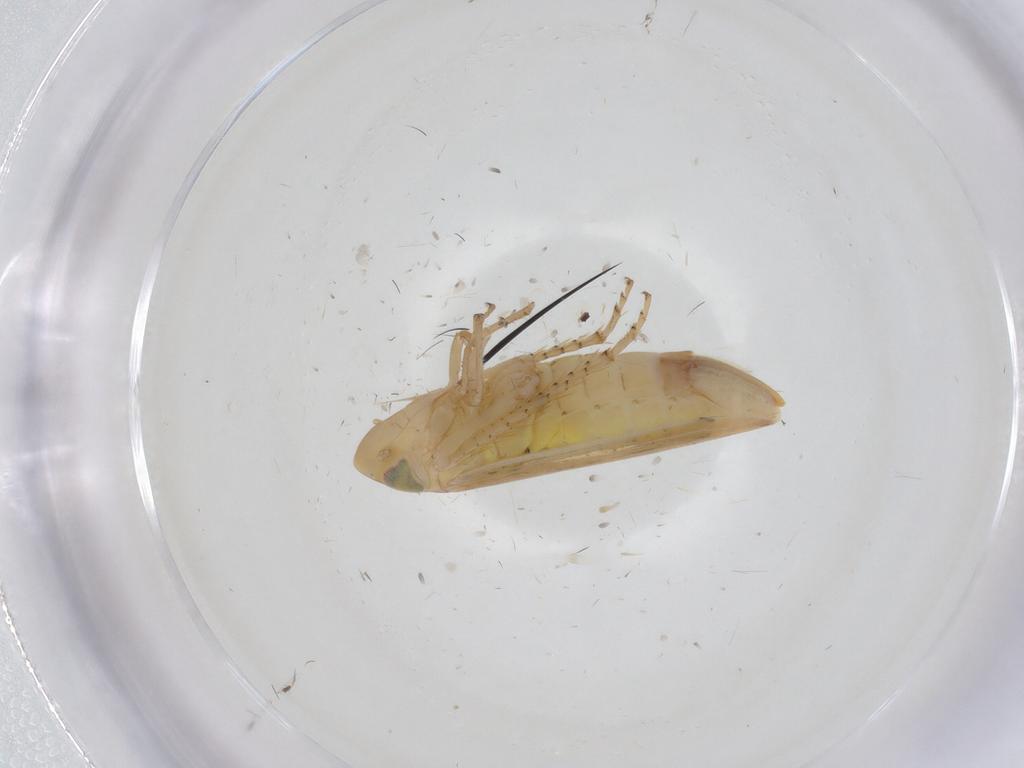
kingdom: Animalia
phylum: Arthropoda
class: Insecta
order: Hemiptera
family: Cicadellidae
